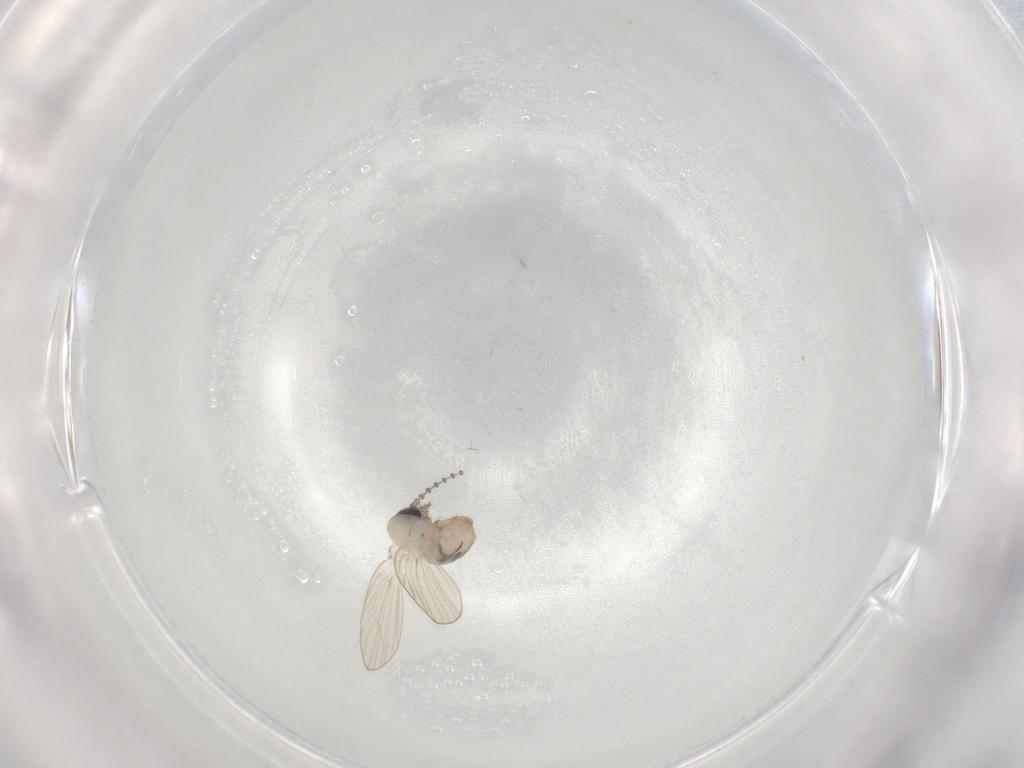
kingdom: Animalia
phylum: Arthropoda
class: Insecta
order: Diptera
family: Psychodidae
